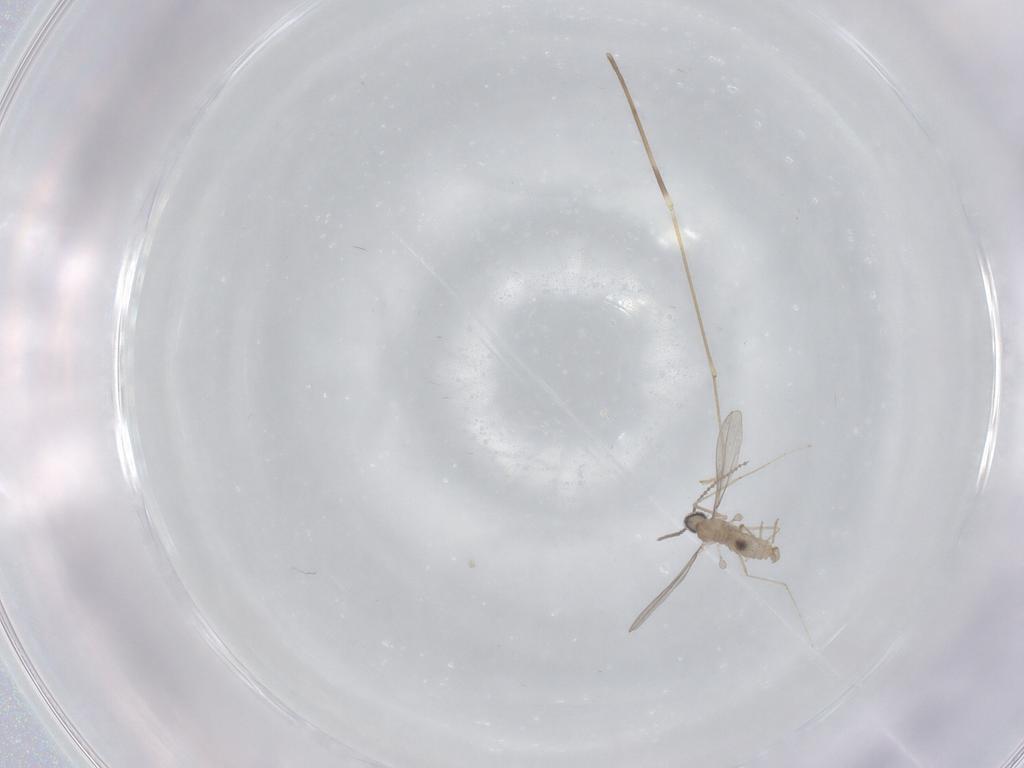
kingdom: Animalia
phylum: Arthropoda
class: Insecta
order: Diptera
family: Limoniidae
